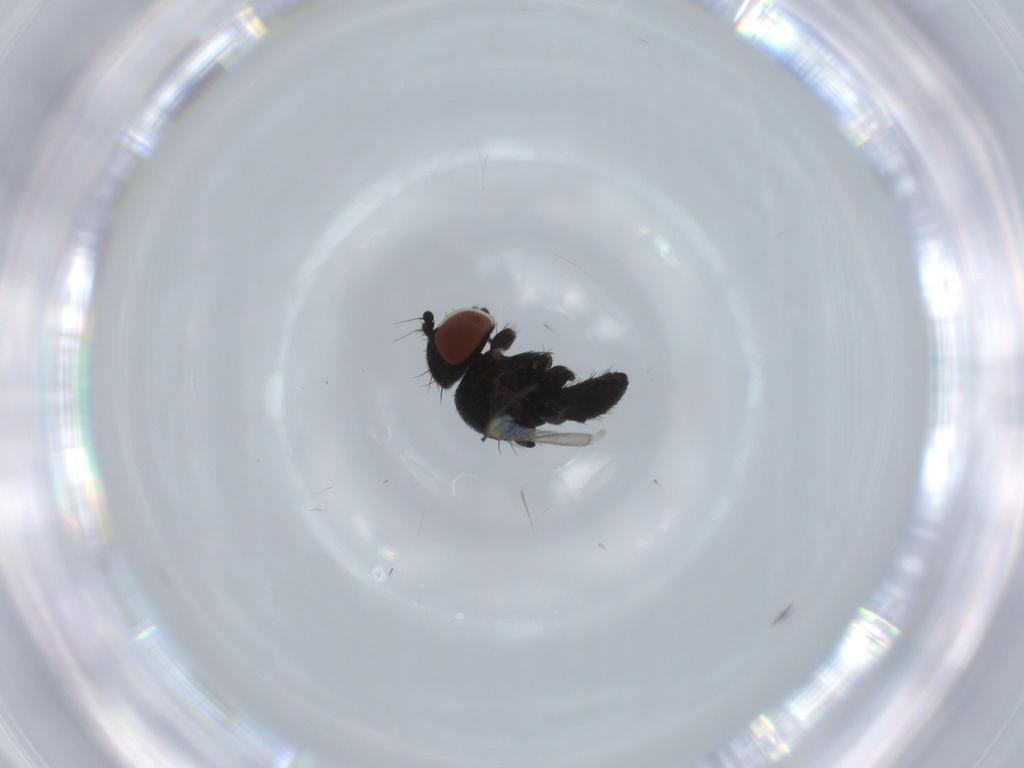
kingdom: Animalia
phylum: Arthropoda
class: Insecta
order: Diptera
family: Milichiidae
